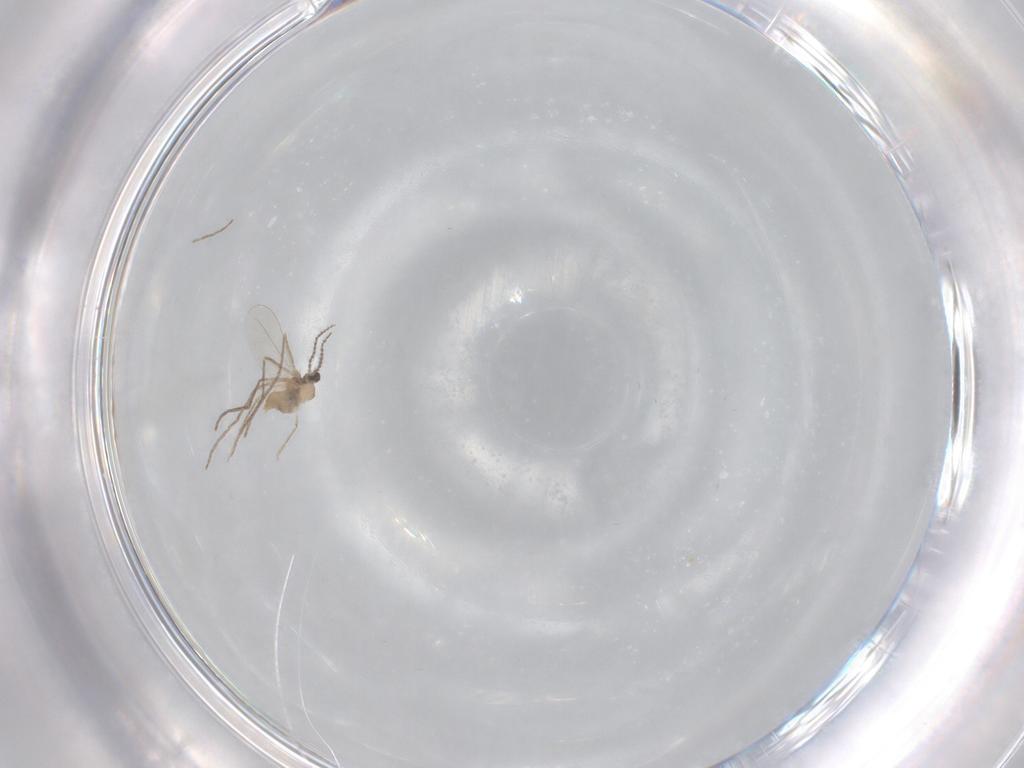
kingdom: Animalia
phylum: Arthropoda
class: Insecta
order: Diptera
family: Cecidomyiidae
